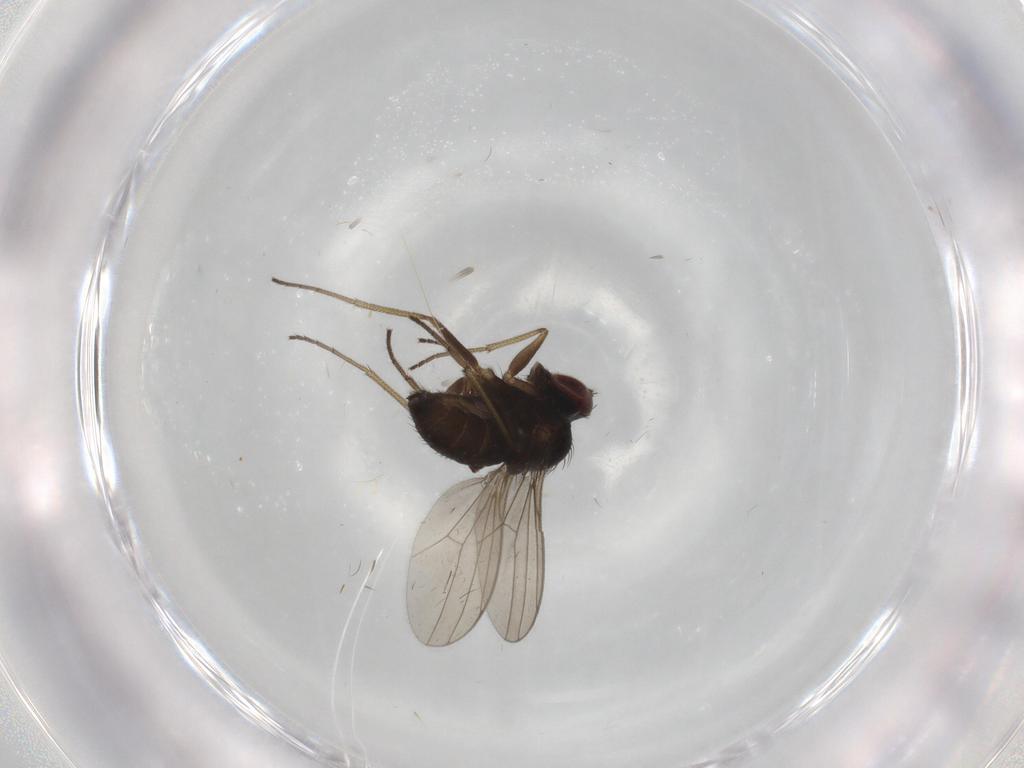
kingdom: Animalia
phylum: Arthropoda
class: Insecta
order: Diptera
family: Dolichopodidae
